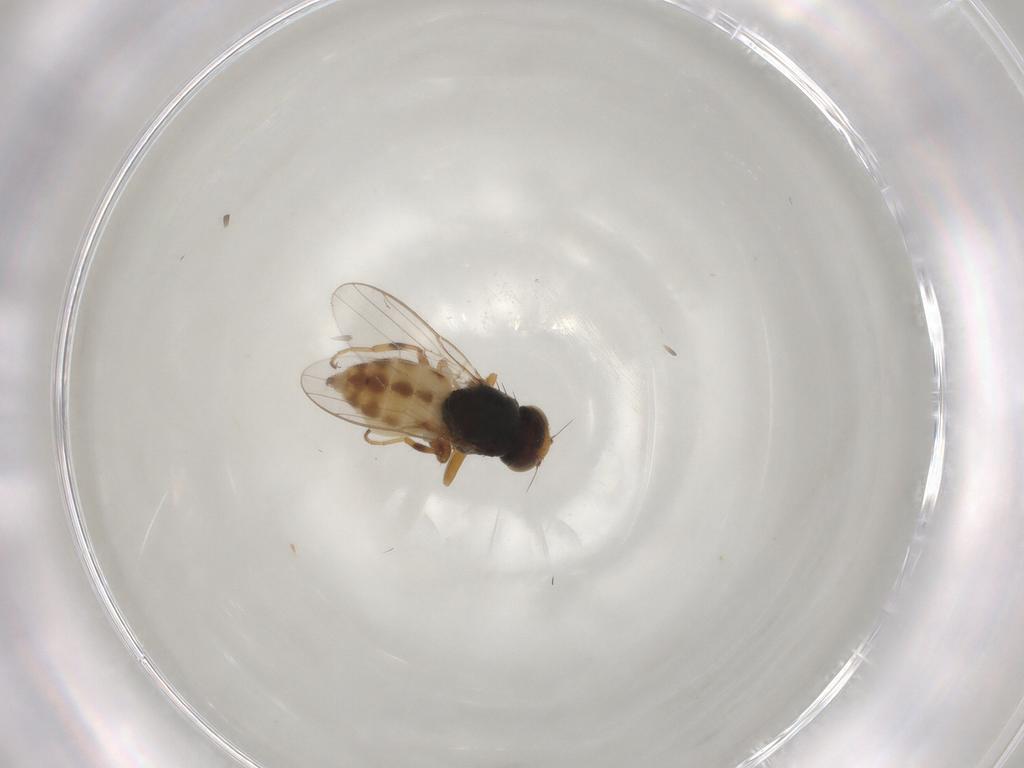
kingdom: Animalia
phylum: Arthropoda
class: Insecta
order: Diptera
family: Chloropidae
